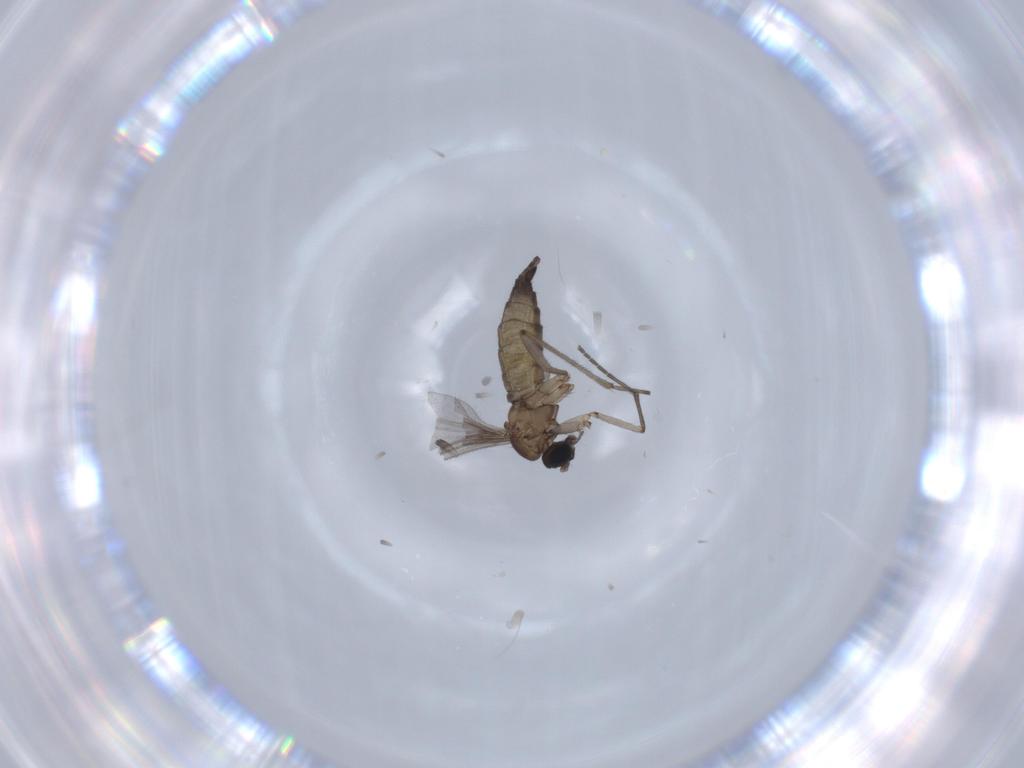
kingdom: Animalia
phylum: Arthropoda
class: Insecta
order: Diptera
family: Sciaridae
